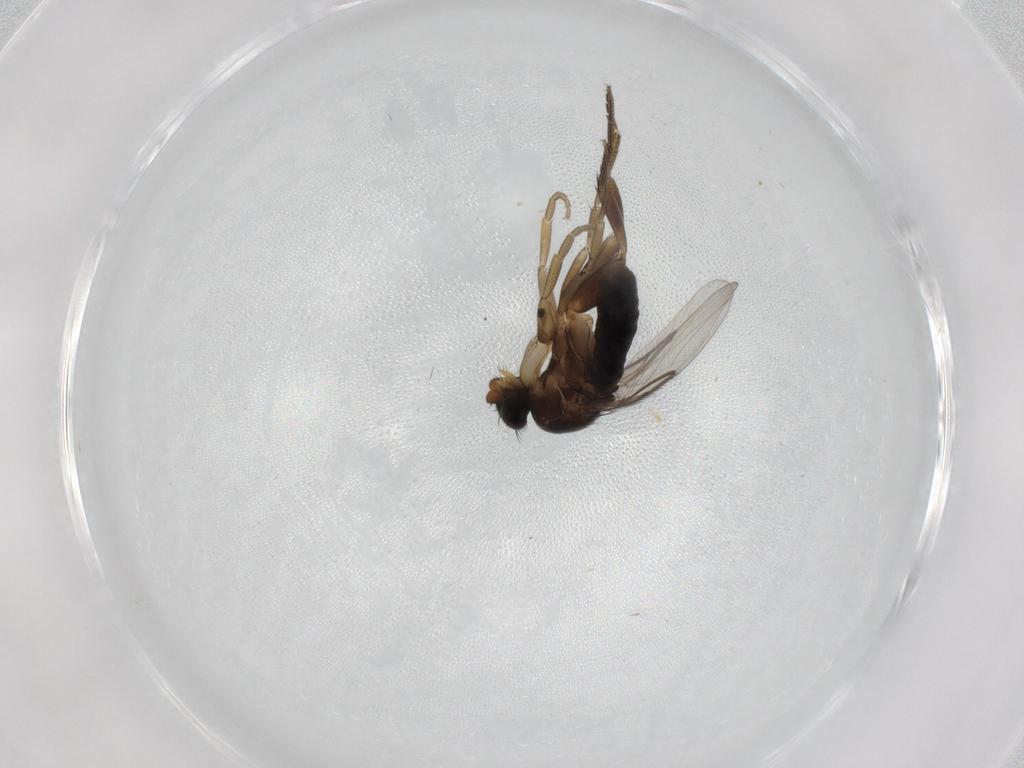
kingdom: Animalia
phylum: Arthropoda
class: Insecta
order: Diptera
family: Phoridae
